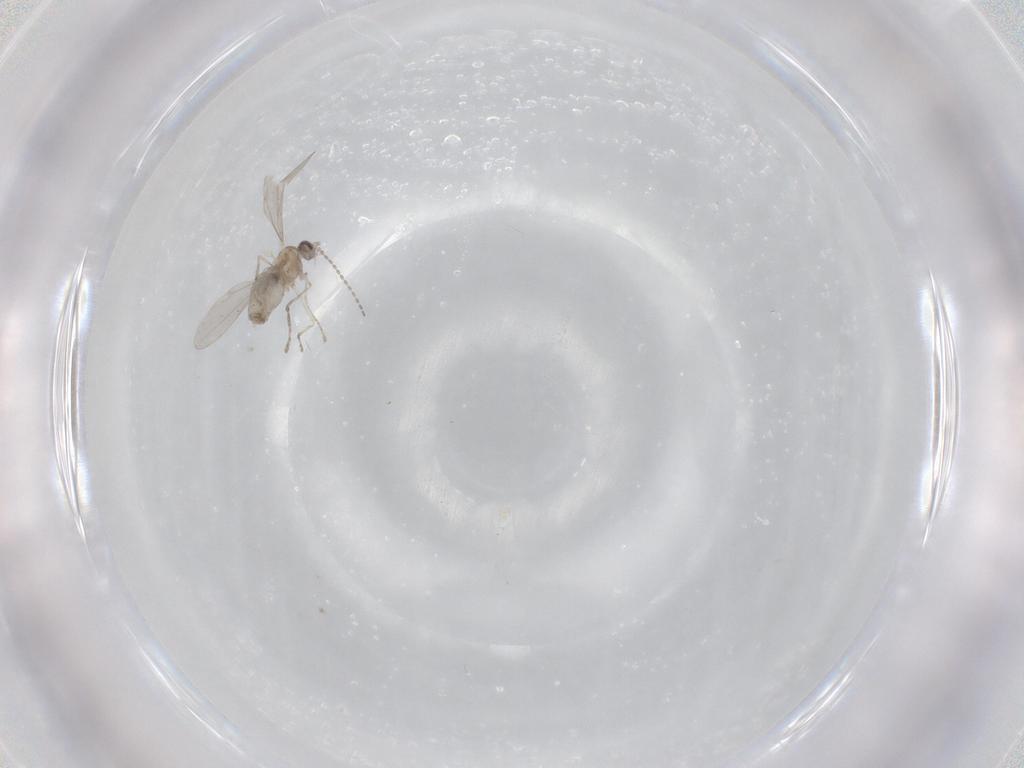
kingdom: Animalia
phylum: Arthropoda
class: Insecta
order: Diptera
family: Cecidomyiidae
